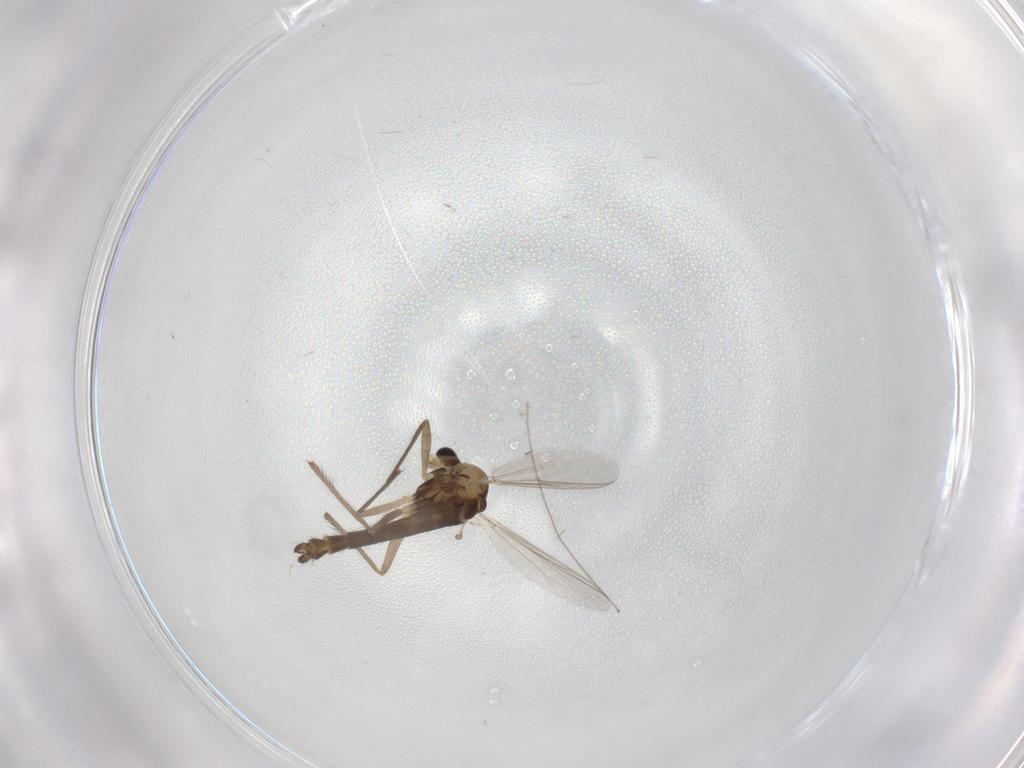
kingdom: Animalia
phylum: Arthropoda
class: Insecta
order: Diptera
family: Chironomidae
